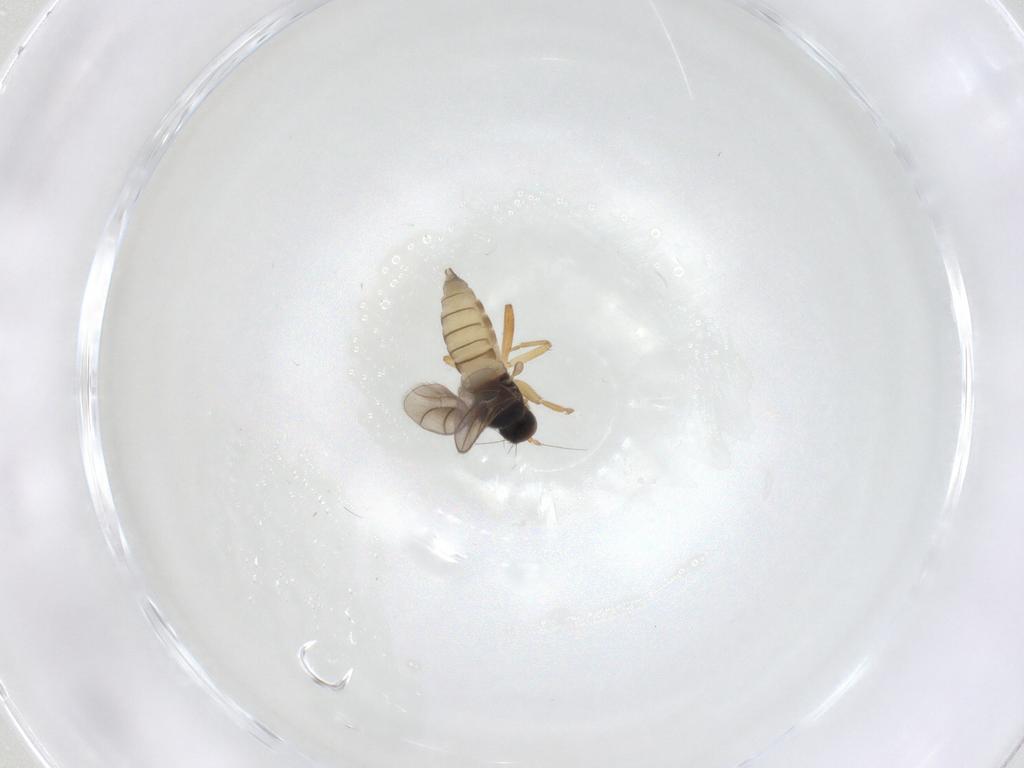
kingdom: Animalia
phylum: Arthropoda
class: Insecta
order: Diptera
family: Hybotidae
